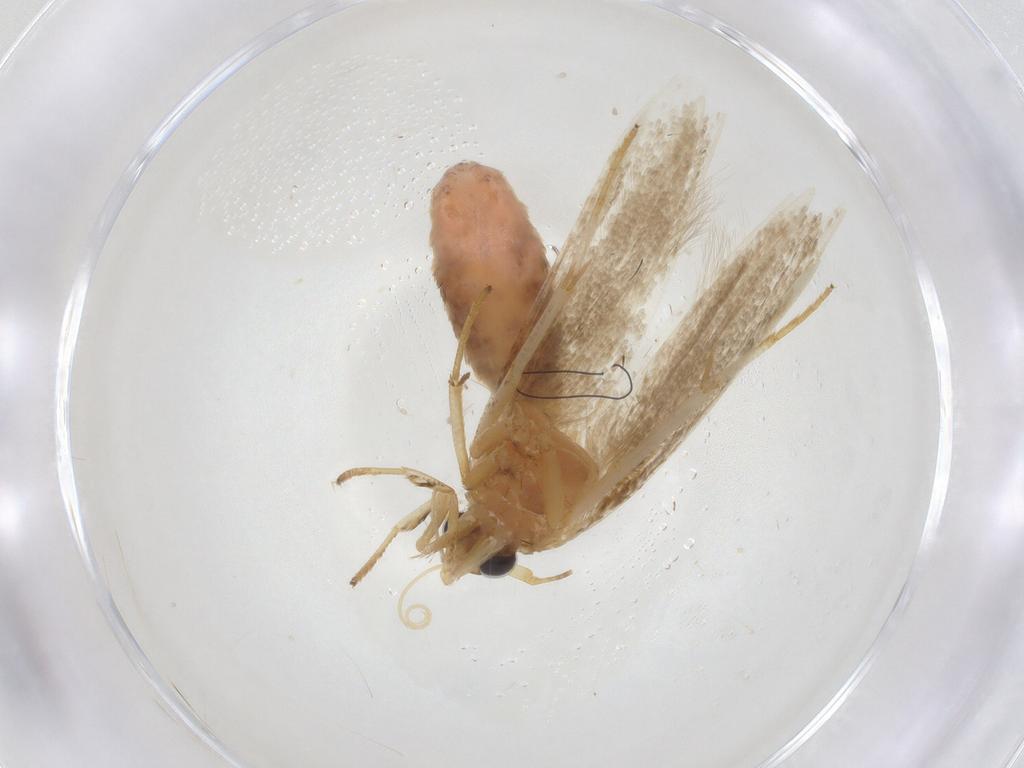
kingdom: Animalia
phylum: Arthropoda
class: Insecta
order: Lepidoptera
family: Blastobasidae
